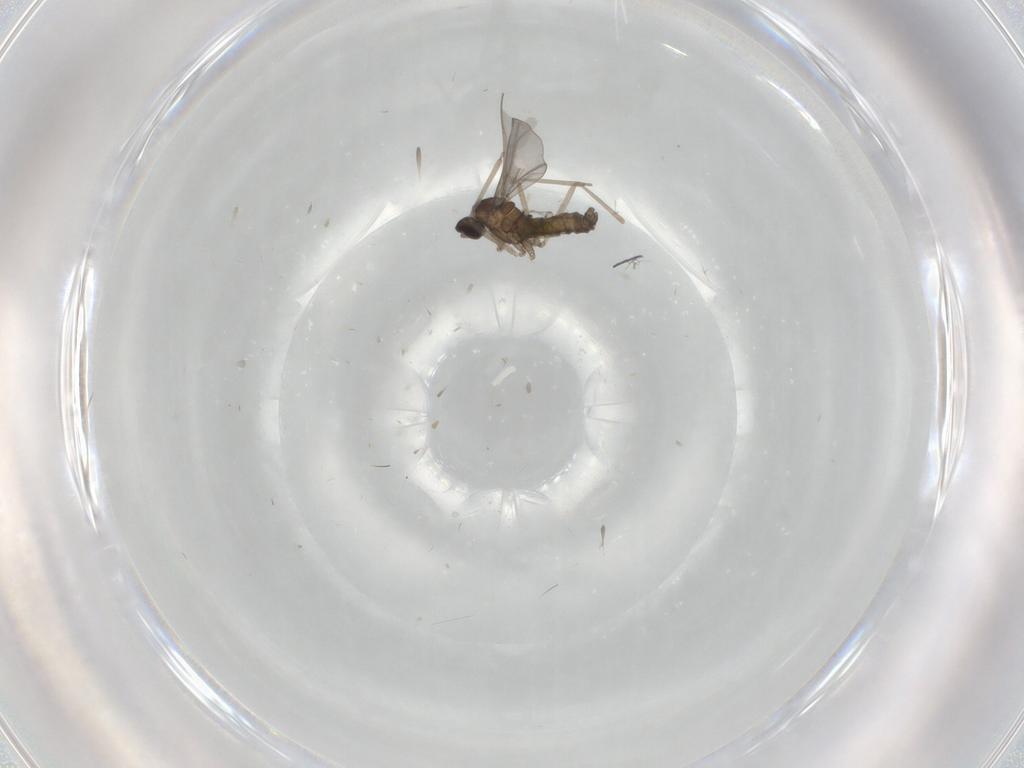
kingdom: Animalia
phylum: Arthropoda
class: Insecta
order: Diptera
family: Cecidomyiidae
